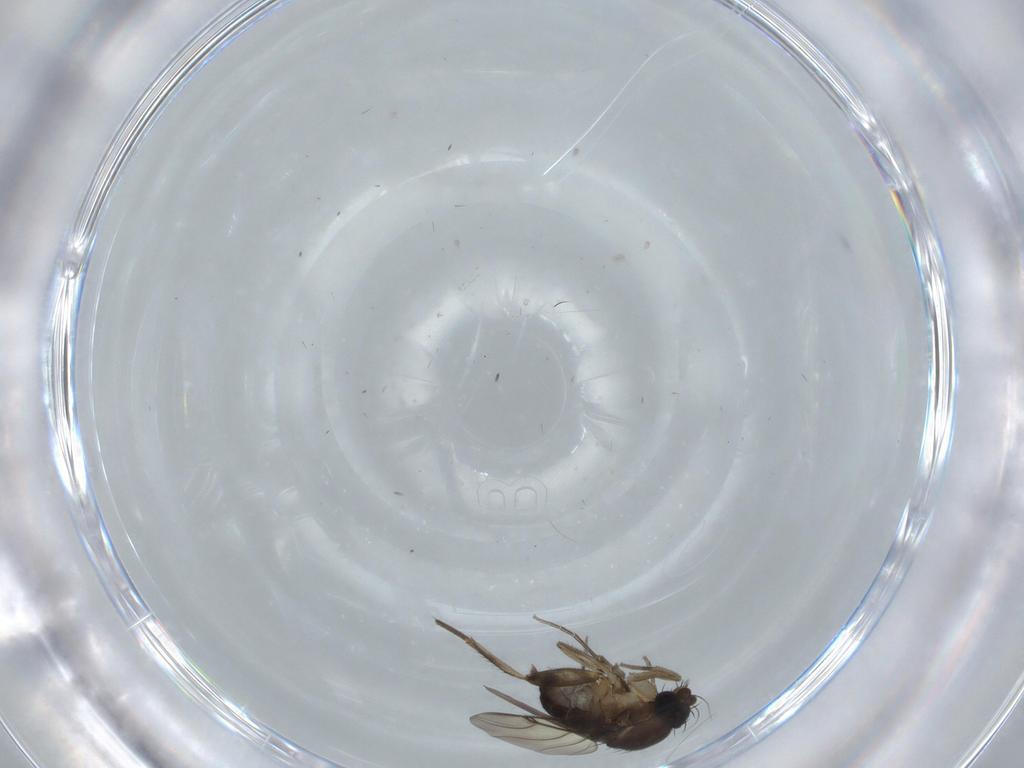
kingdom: Animalia
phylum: Arthropoda
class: Insecta
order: Diptera
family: Phoridae
